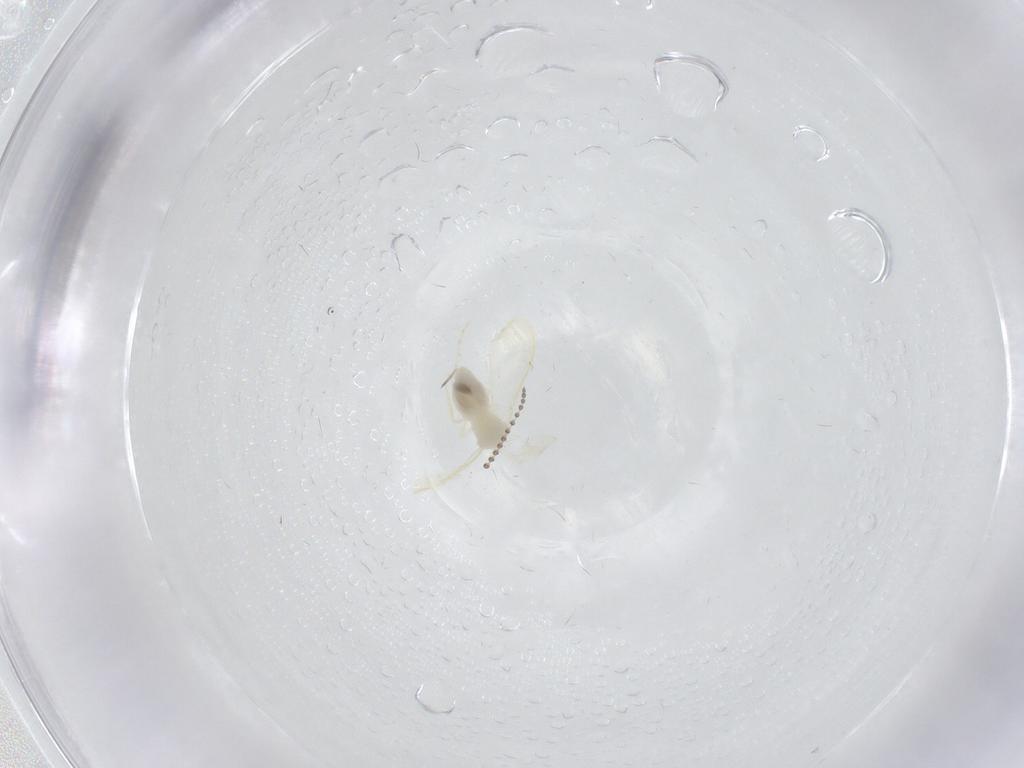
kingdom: Animalia
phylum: Arthropoda
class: Insecta
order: Diptera
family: Psychodidae
